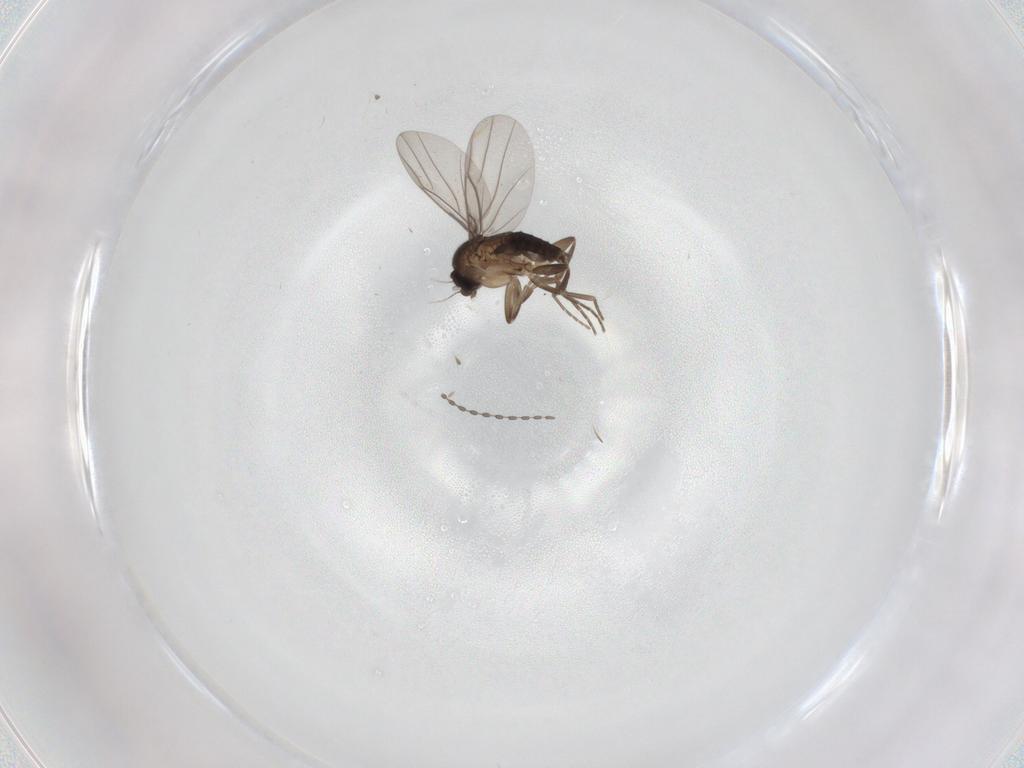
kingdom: Animalia
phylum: Arthropoda
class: Insecta
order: Diptera
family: Cecidomyiidae
